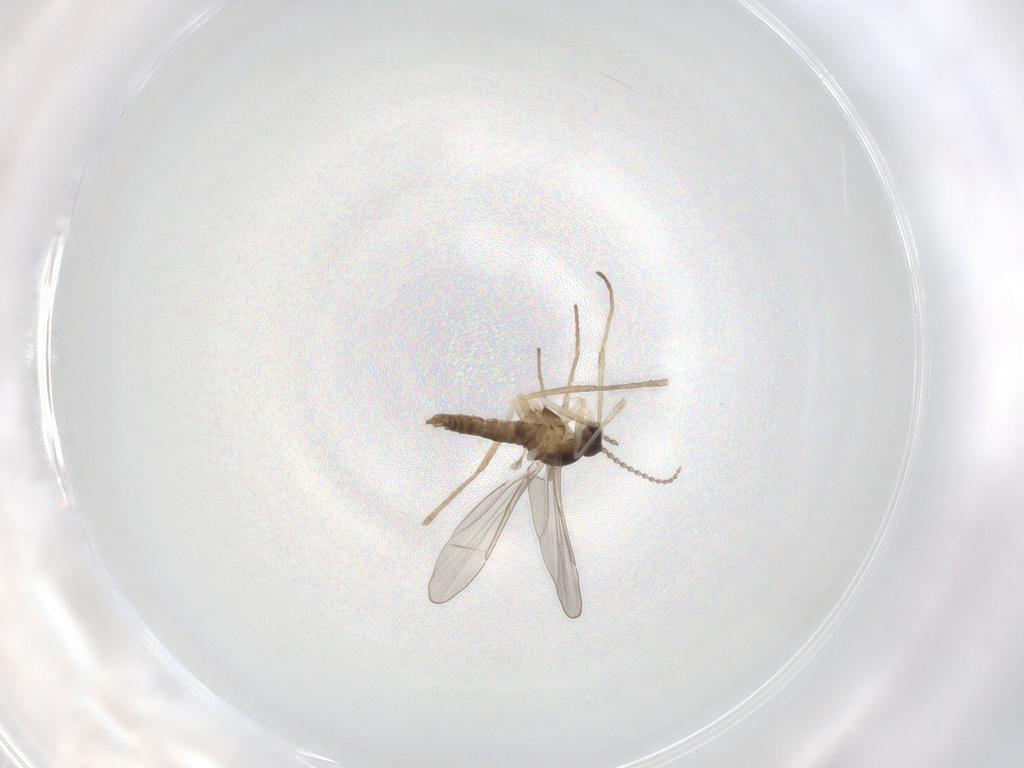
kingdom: Animalia
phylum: Arthropoda
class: Insecta
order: Diptera
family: Cecidomyiidae
